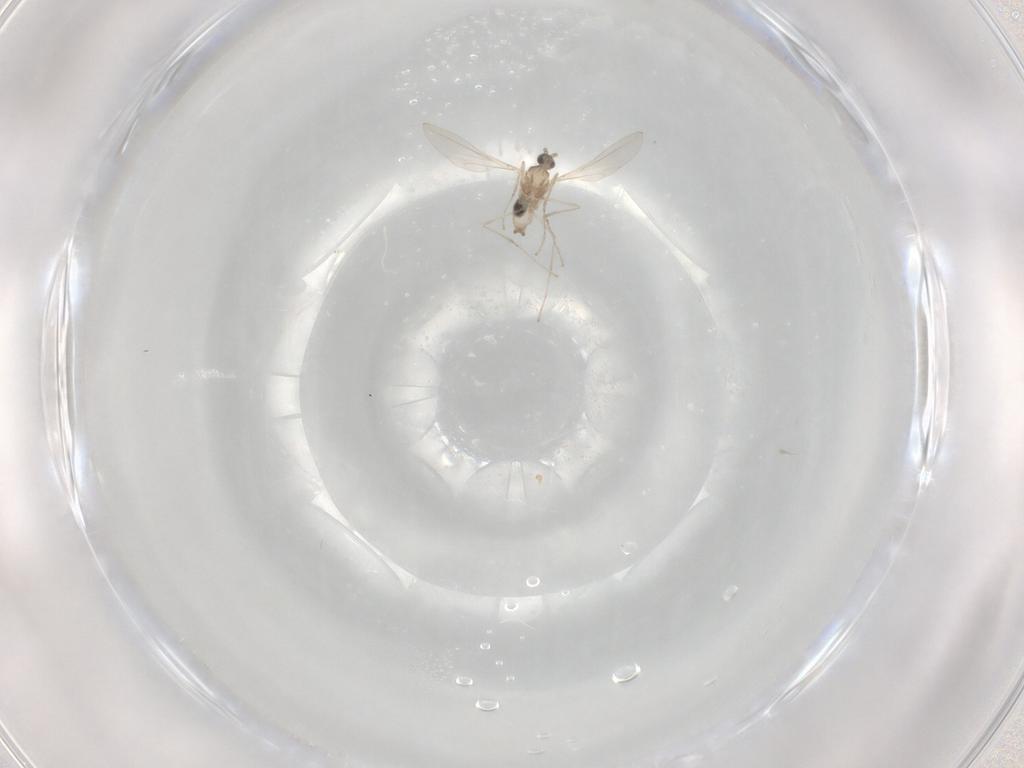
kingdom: Animalia
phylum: Arthropoda
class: Insecta
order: Diptera
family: Sciaridae
